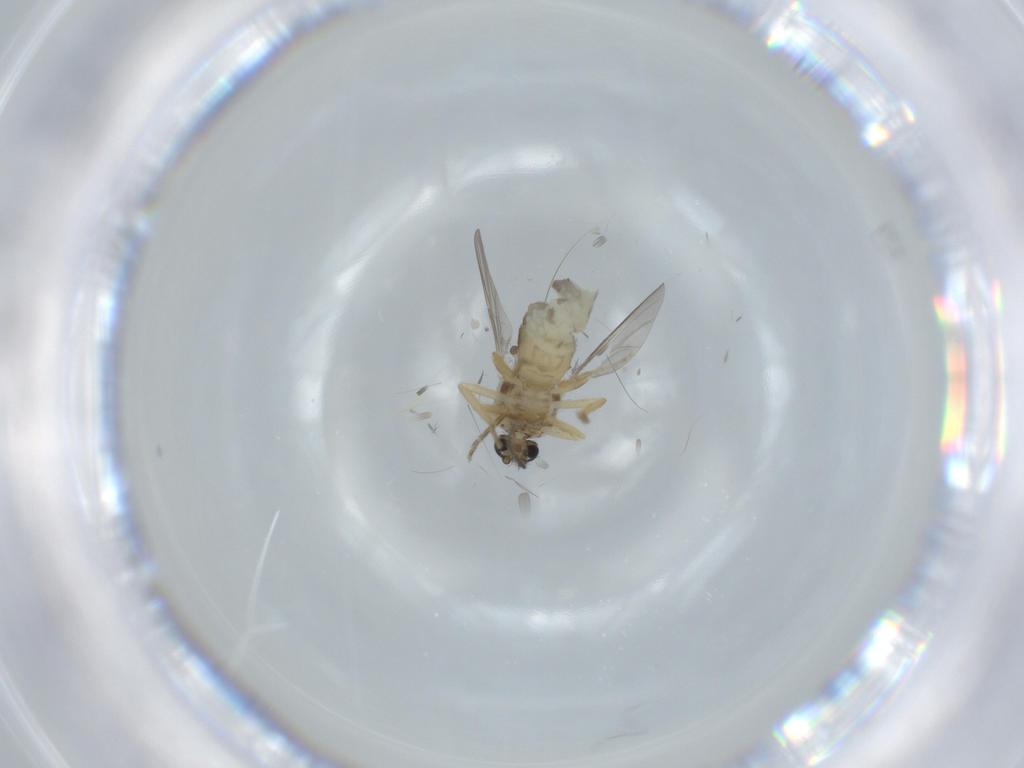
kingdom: Animalia
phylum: Arthropoda
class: Insecta
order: Diptera
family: Ceratopogonidae
